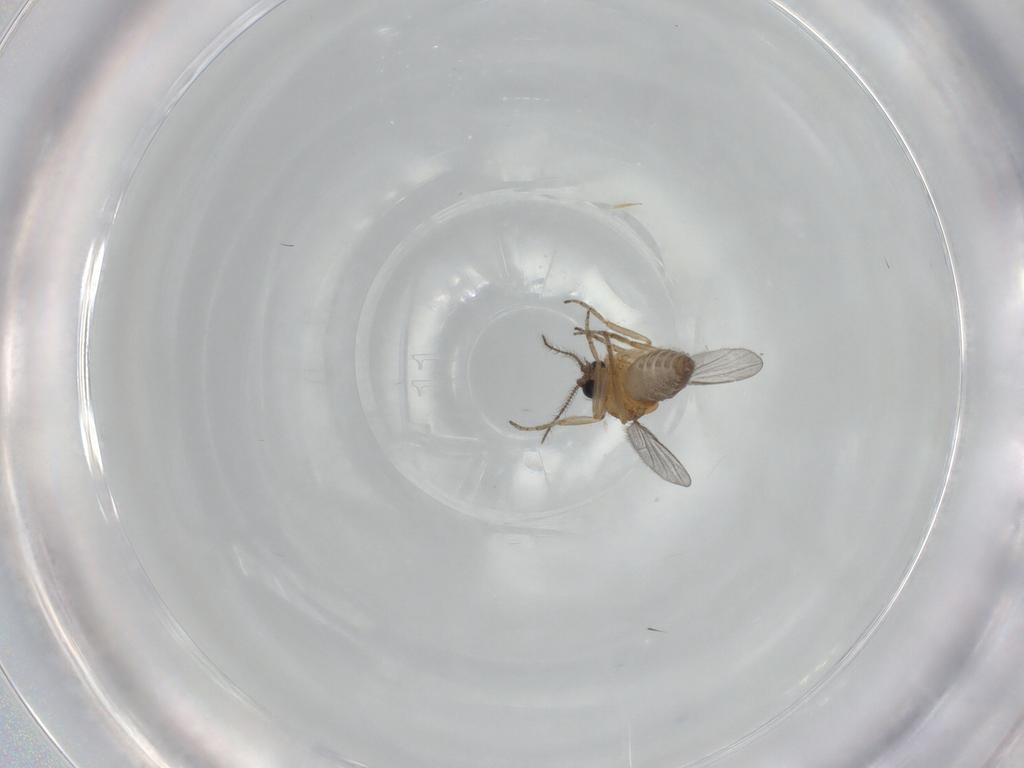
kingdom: Animalia
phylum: Arthropoda
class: Insecta
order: Diptera
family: Ceratopogonidae
